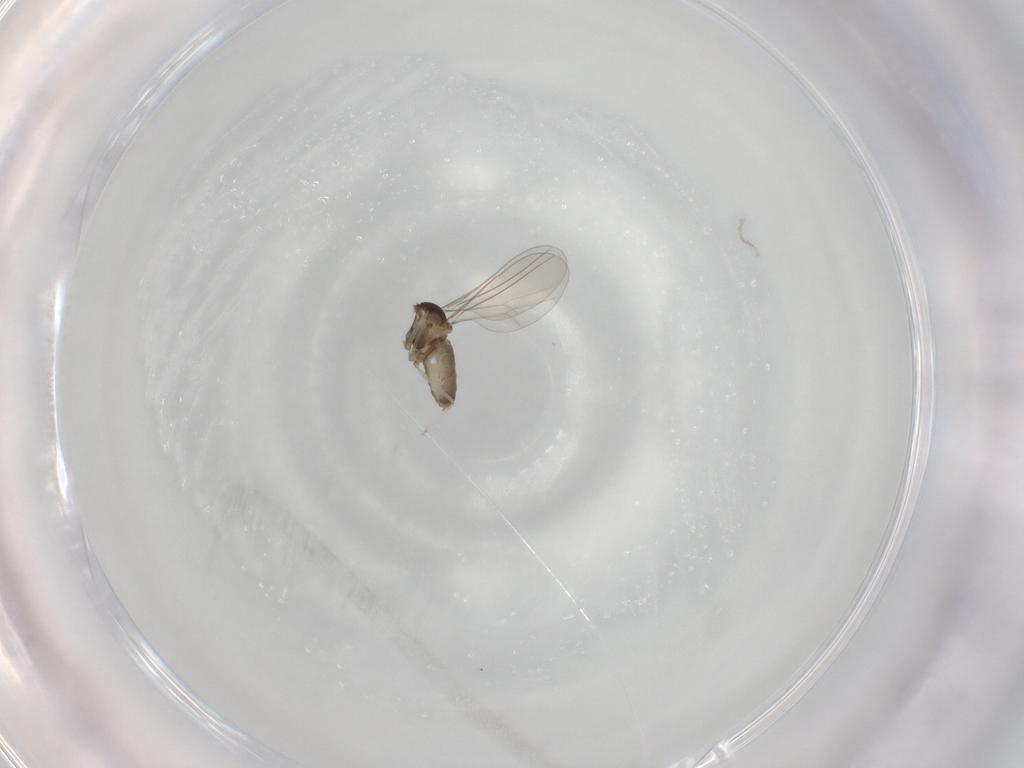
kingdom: Animalia
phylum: Arthropoda
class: Insecta
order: Diptera
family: Cecidomyiidae
